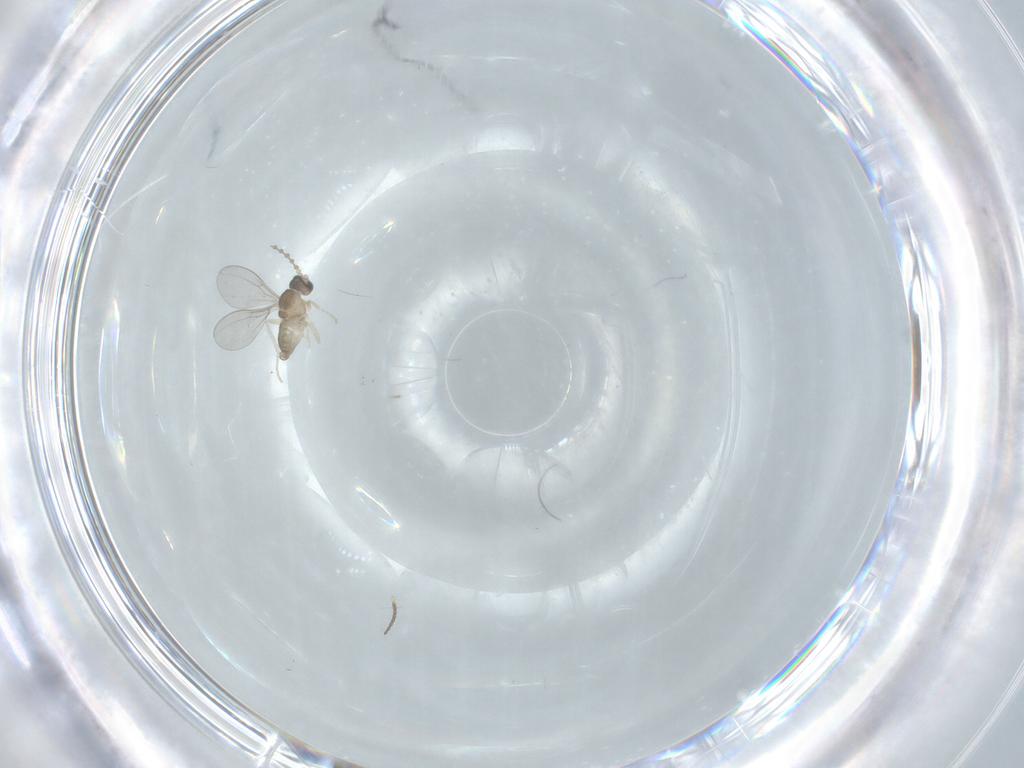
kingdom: Animalia
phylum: Arthropoda
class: Insecta
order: Diptera
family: Cecidomyiidae
